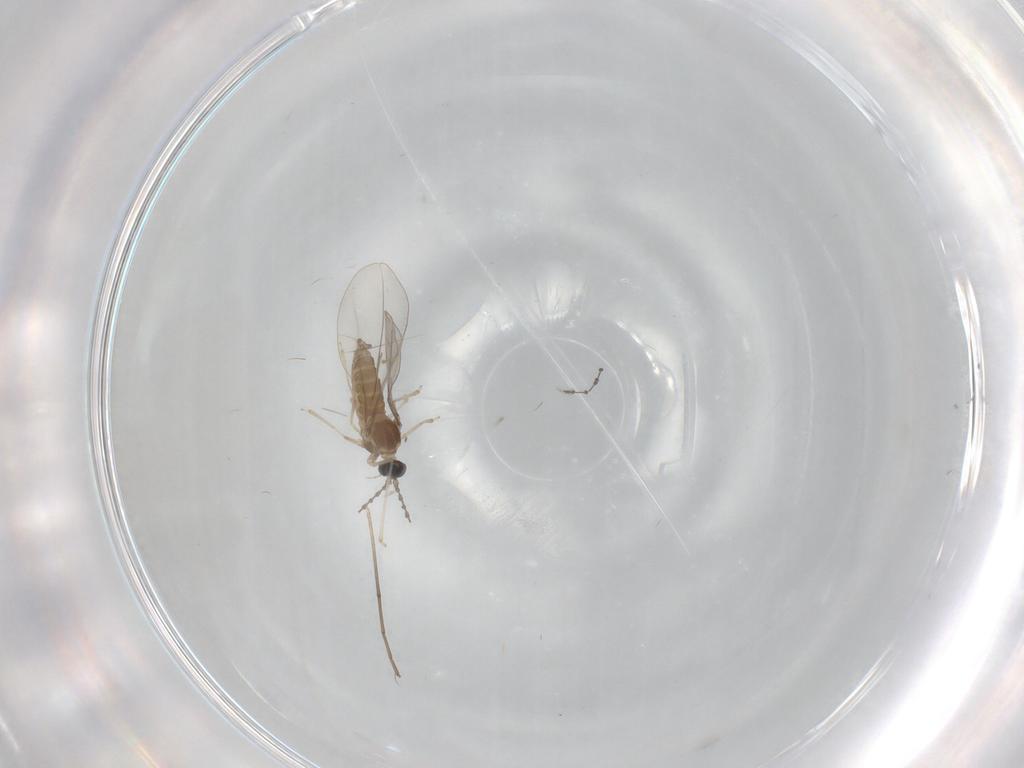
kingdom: Animalia
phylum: Arthropoda
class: Insecta
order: Diptera
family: Cecidomyiidae
